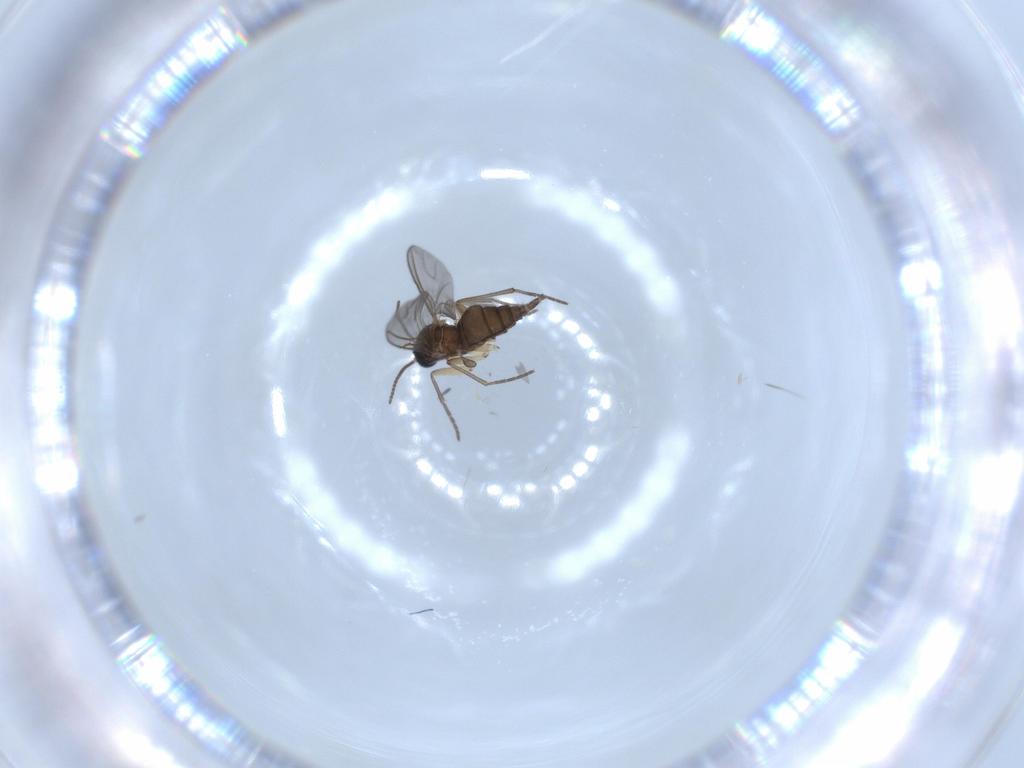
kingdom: Animalia
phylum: Arthropoda
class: Insecta
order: Diptera
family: Sciaridae
